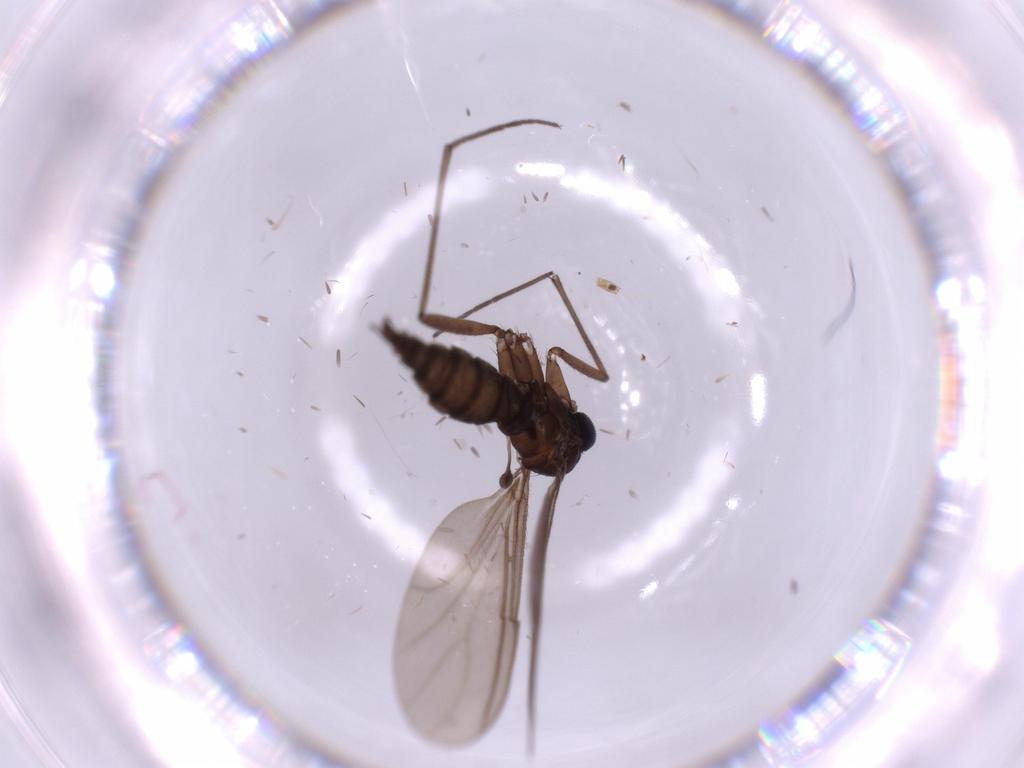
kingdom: Animalia
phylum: Arthropoda
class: Insecta
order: Diptera
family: Sciaridae
